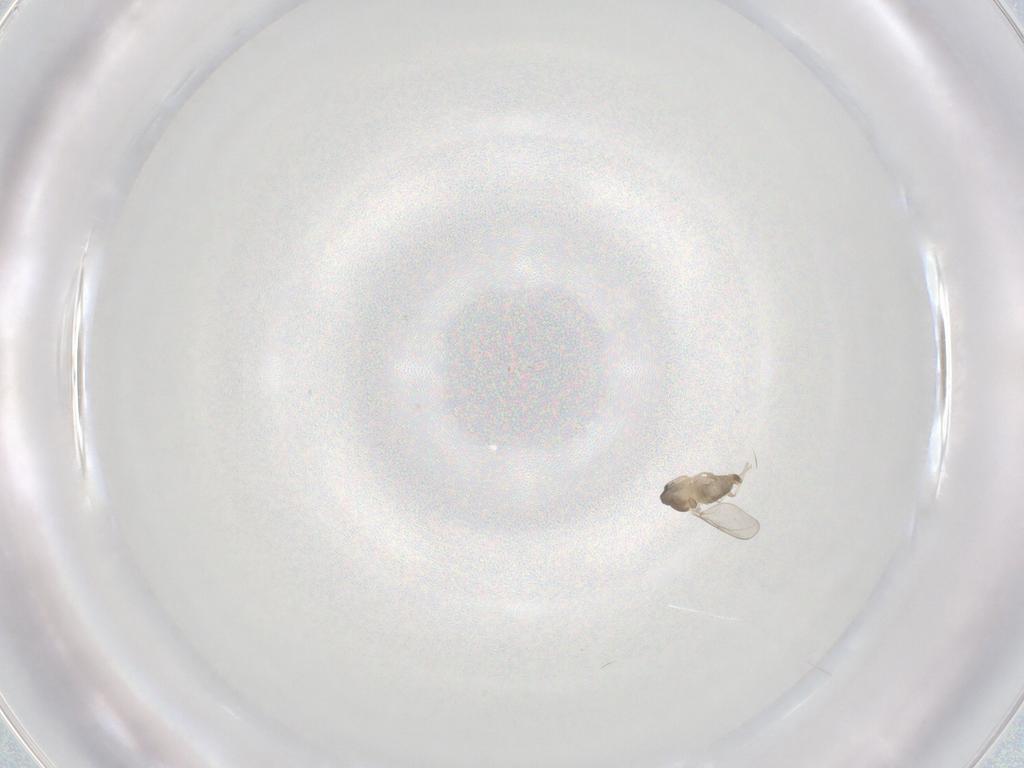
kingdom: Animalia
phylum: Arthropoda
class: Insecta
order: Diptera
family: Cecidomyiidae
